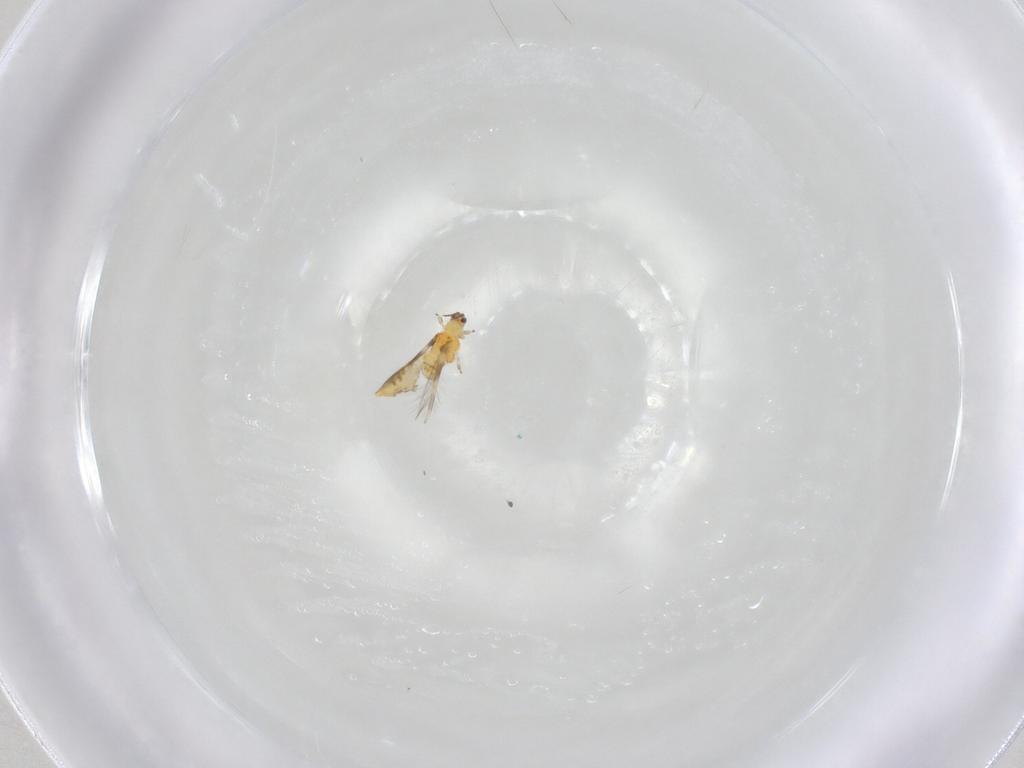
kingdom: Animalia
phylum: Arthropoda
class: Insecta
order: Thysanoptera
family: Thripidae
